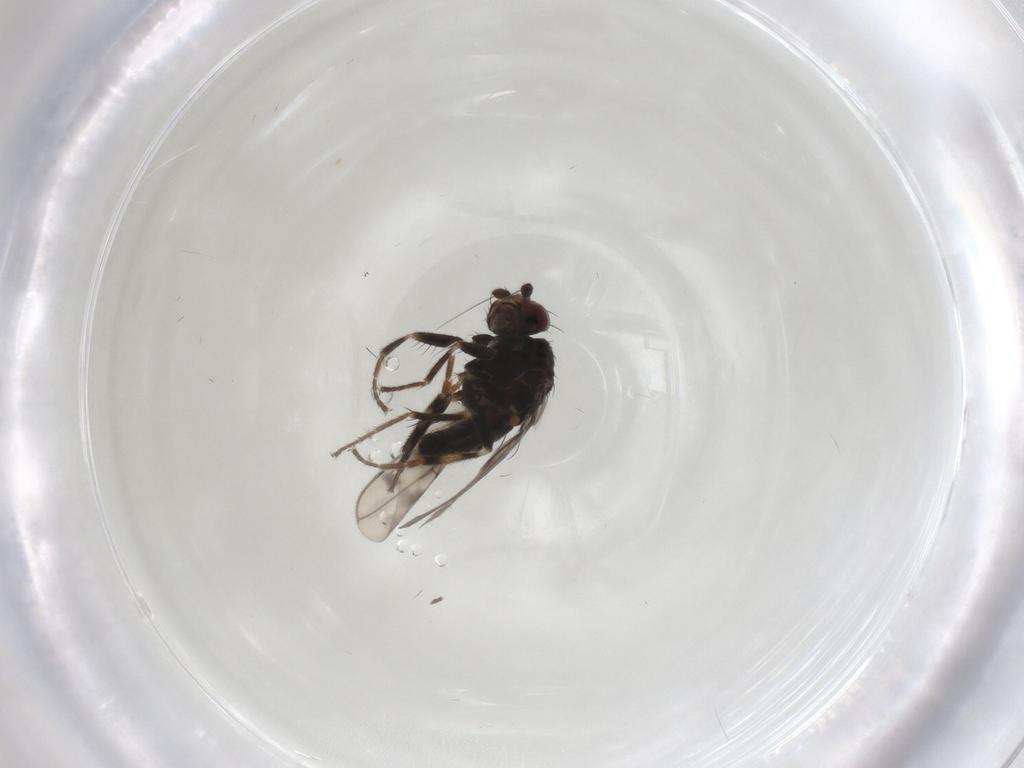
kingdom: Animalia
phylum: Arthropoda
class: Insecta
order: Diptera
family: Sphaeroceridae
